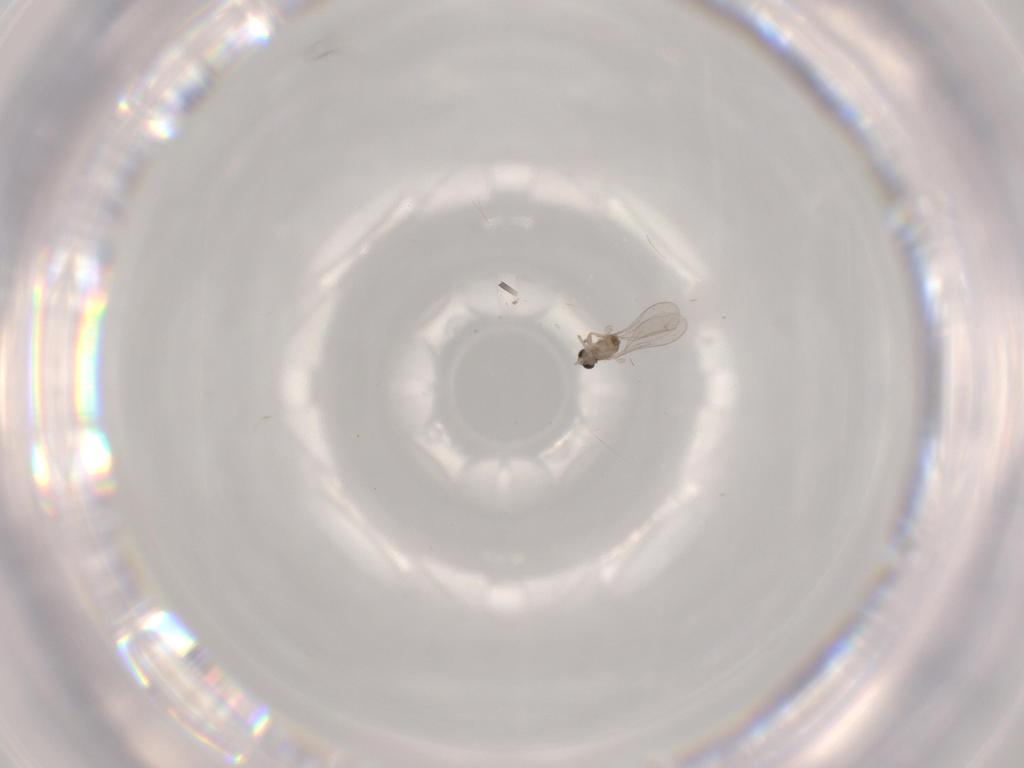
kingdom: Animalia
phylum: Arthropoda
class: Insecta
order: Diptera
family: Cecidomyiidae
